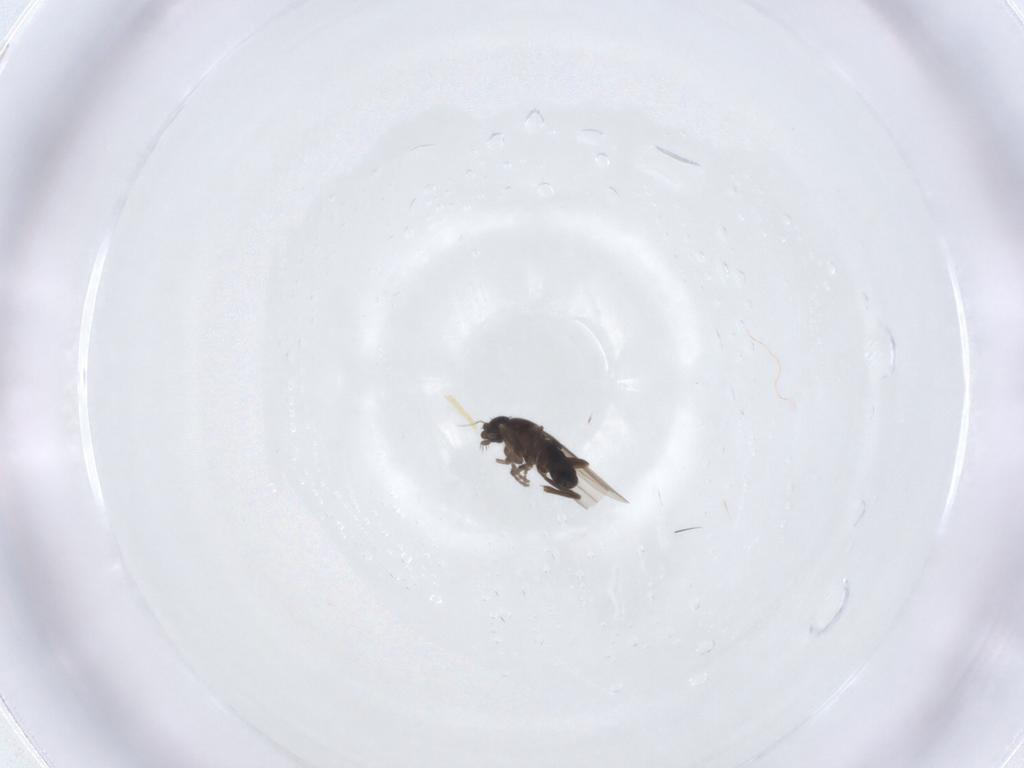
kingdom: Animalia
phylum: Arthropoda
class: Insecta
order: Diptera
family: Phoridae
